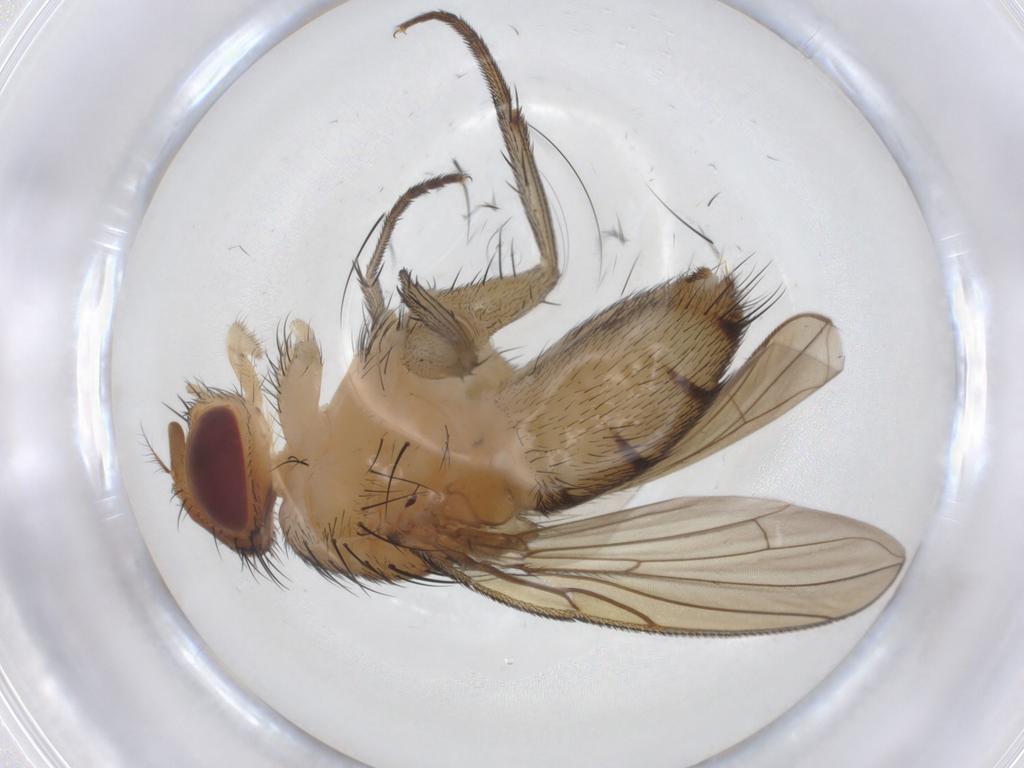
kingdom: Animalia
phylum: Arthropoda
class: Insecta
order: Diptera
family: Calliphoridae
